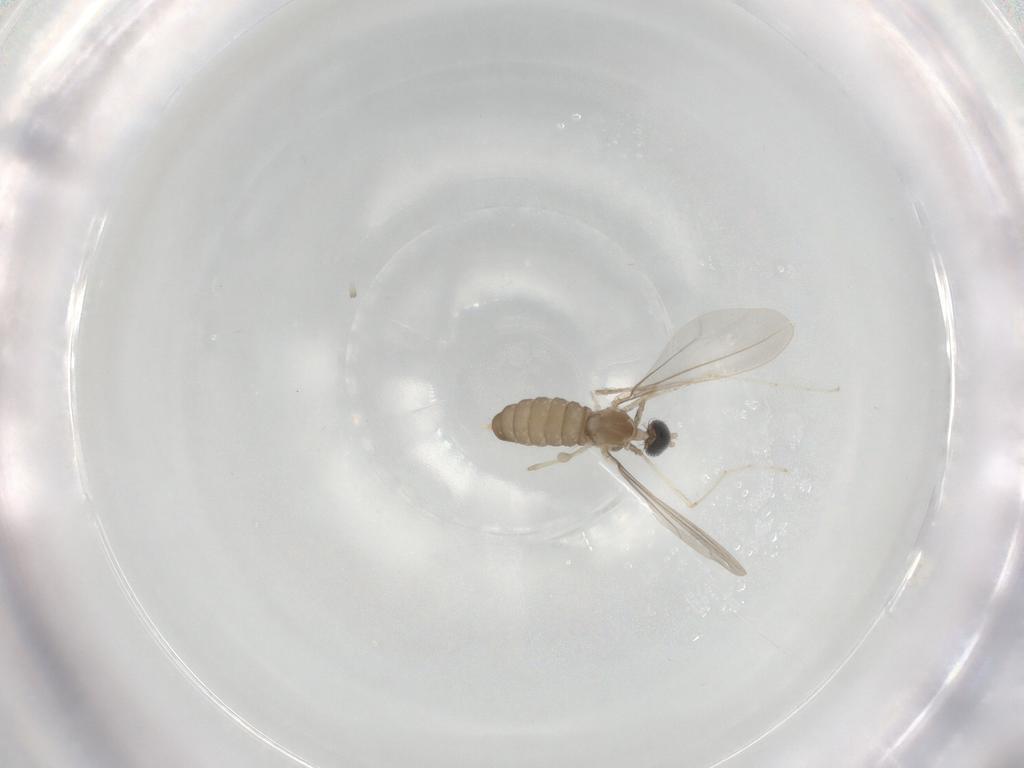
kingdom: Animalia
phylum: Arthropoda
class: Insecta
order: Diptera
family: Cecidomyiidae
